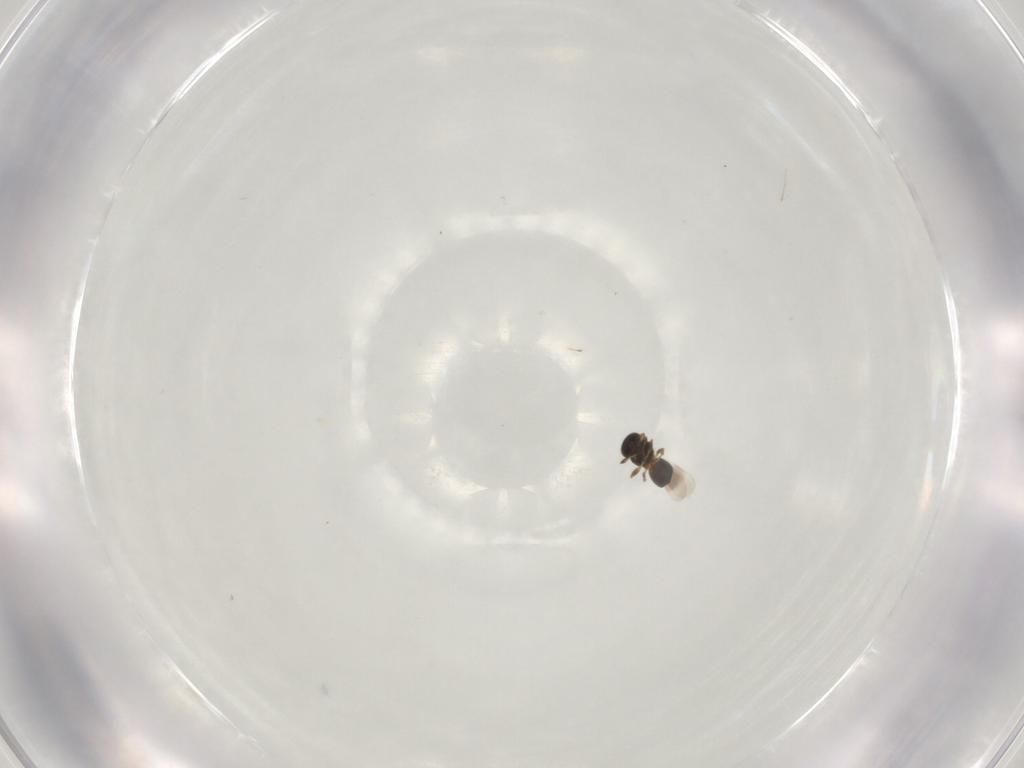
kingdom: Animalia
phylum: Arthropoda
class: Insecta
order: Hymenoptera
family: Platygastridae
